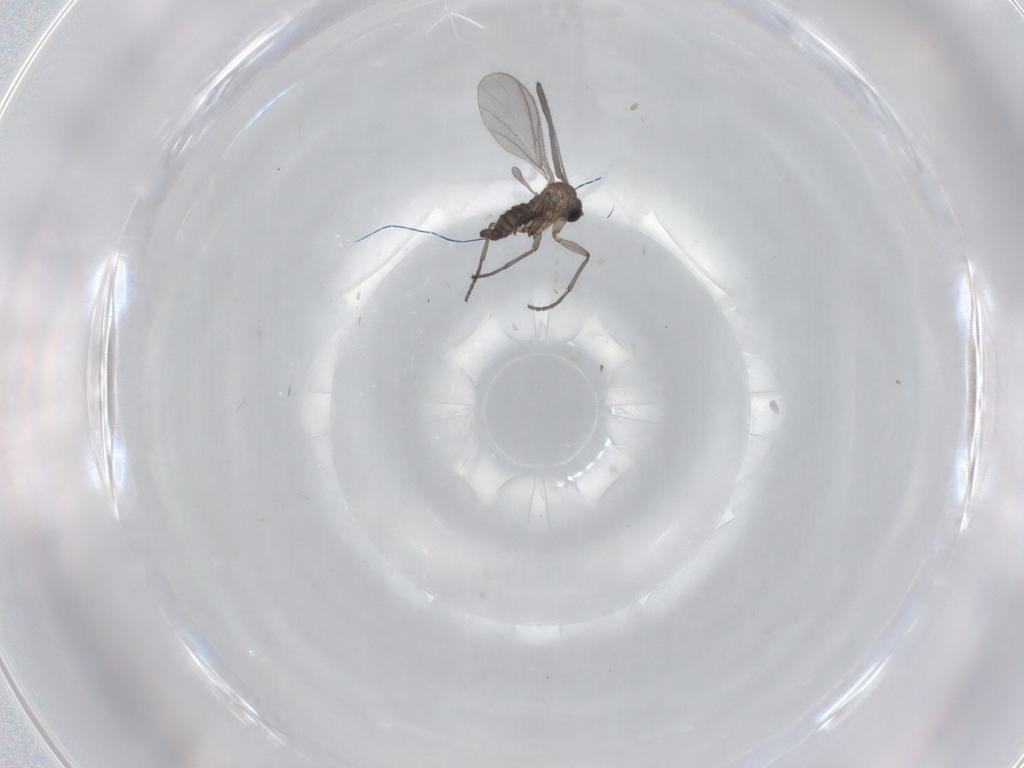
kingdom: Animalia
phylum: Arthropoda
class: Insecta
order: Diptera
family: Sciaridae
